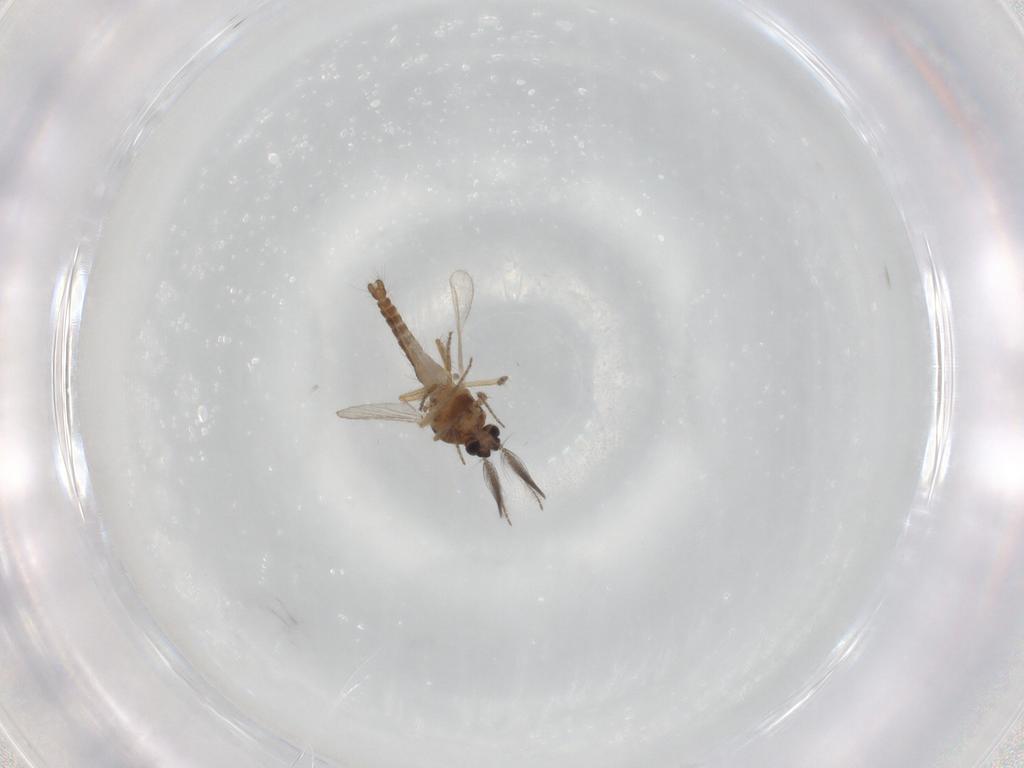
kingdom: Animalia
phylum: Arthropoda
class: Insecta
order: Diptera
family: Ceratopogonidae
